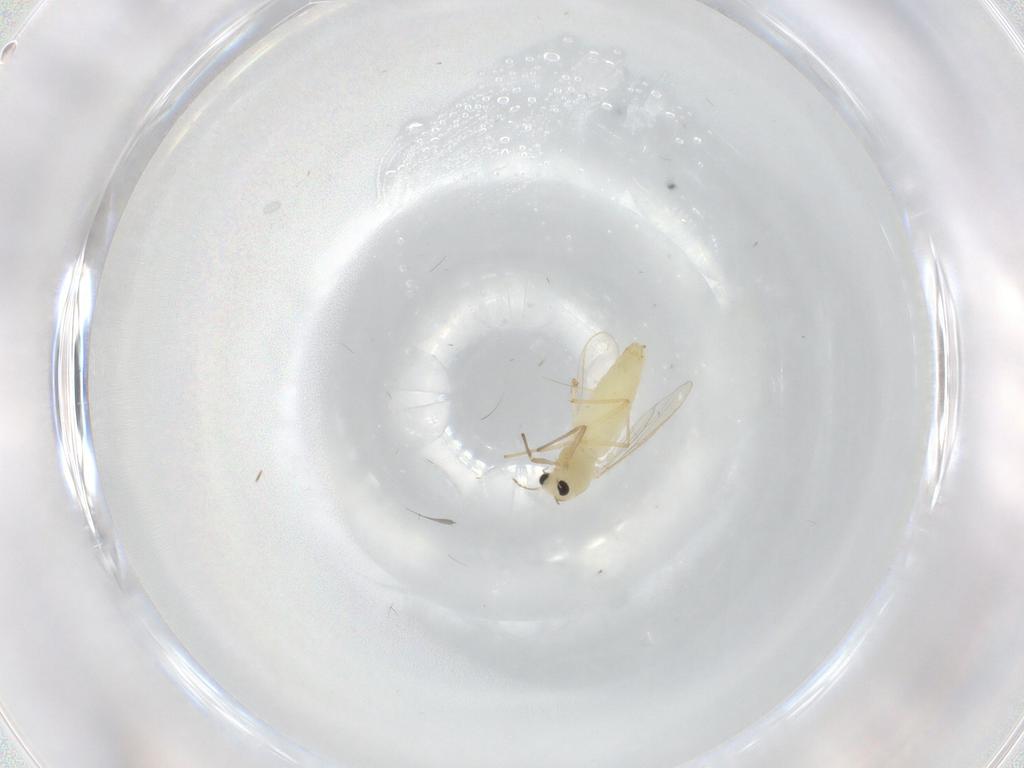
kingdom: Animalia
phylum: Arthropoda
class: Insecta
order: Diptera
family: Chironomidae
